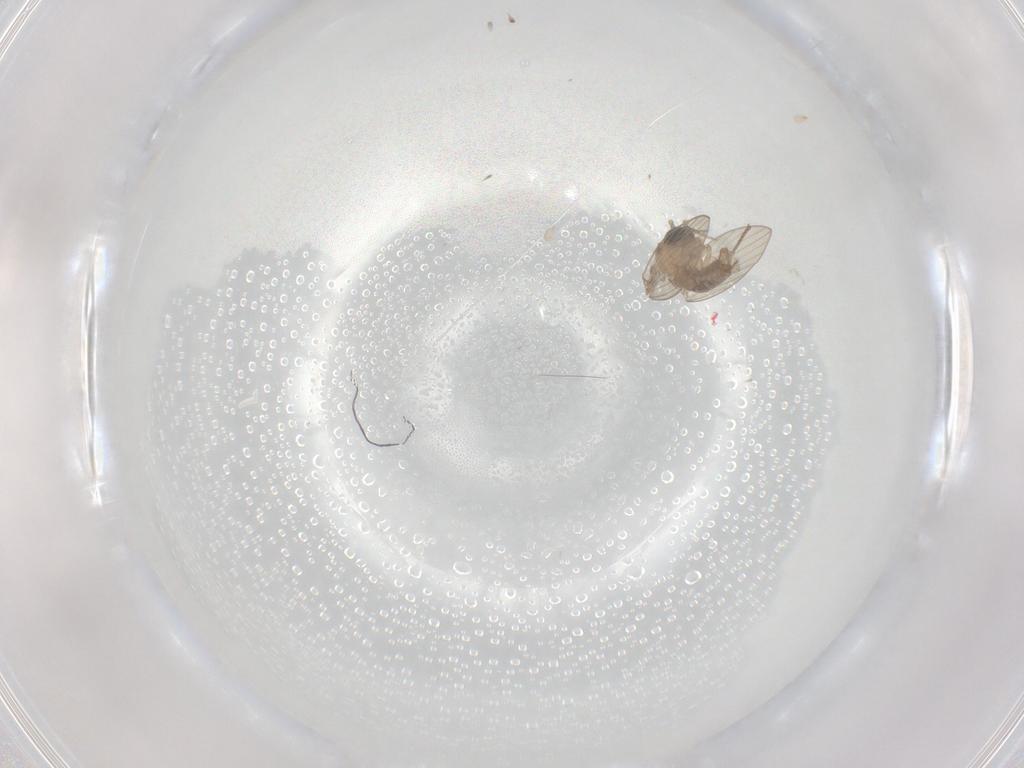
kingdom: Animalia
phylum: Arthropoda
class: Insecta
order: Diptera
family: Psychodidae
